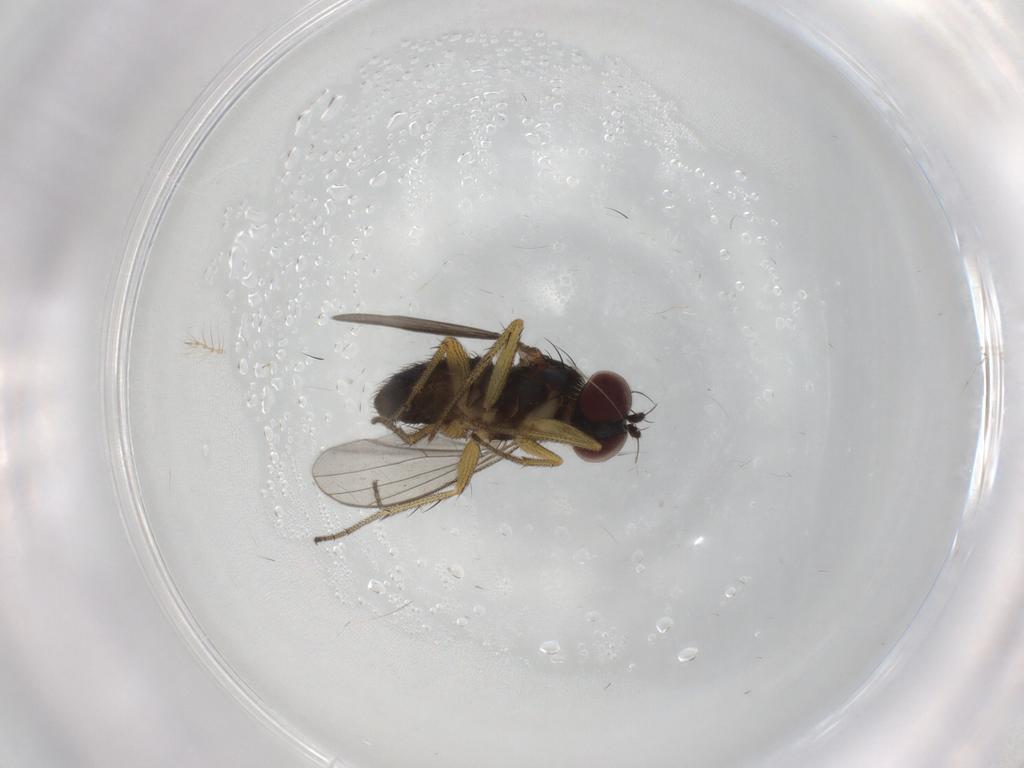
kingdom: Animalia
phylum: Arthropoda
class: Insecta
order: Diptera
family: Dolichopodidae
